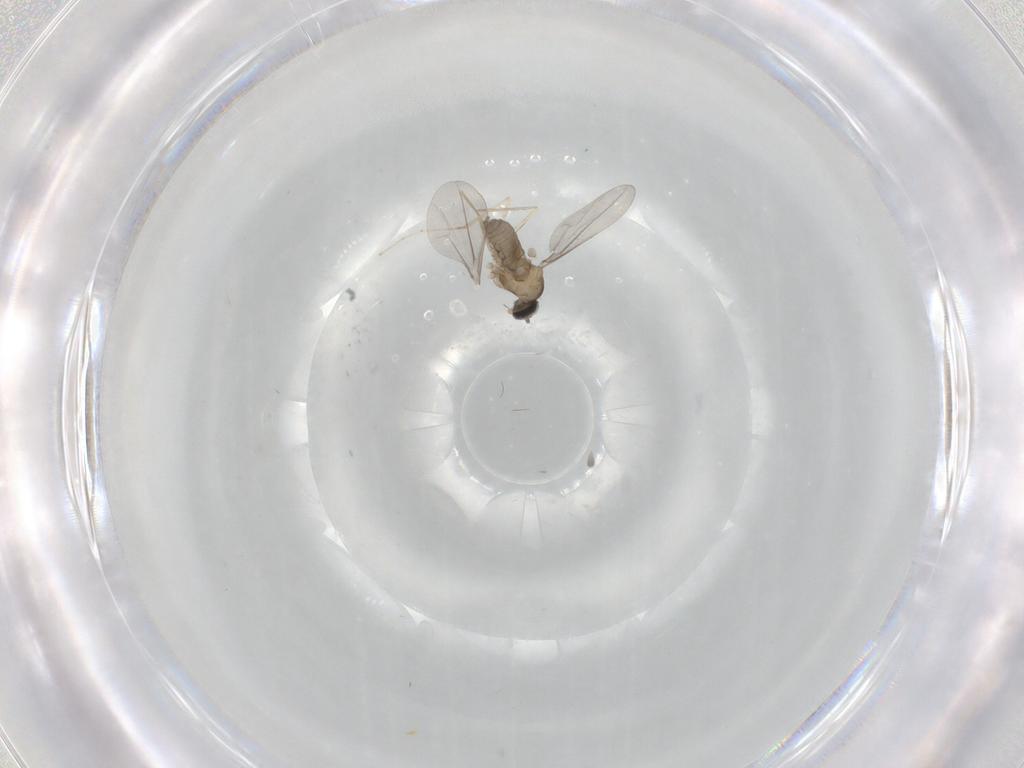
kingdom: Animalia
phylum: Arthropoda
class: Insecta
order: Diptera
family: Cecidomyiidae
